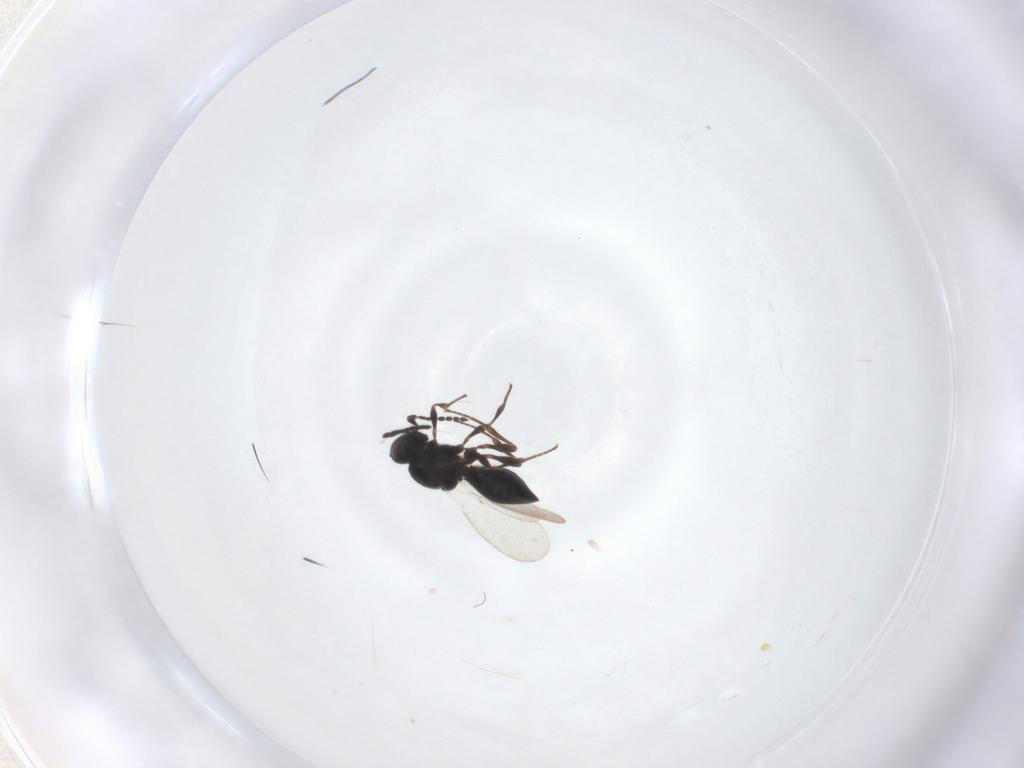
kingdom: Animalia
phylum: Arthropoda
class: Insecta
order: Hymenoptera
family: Platygastridae
